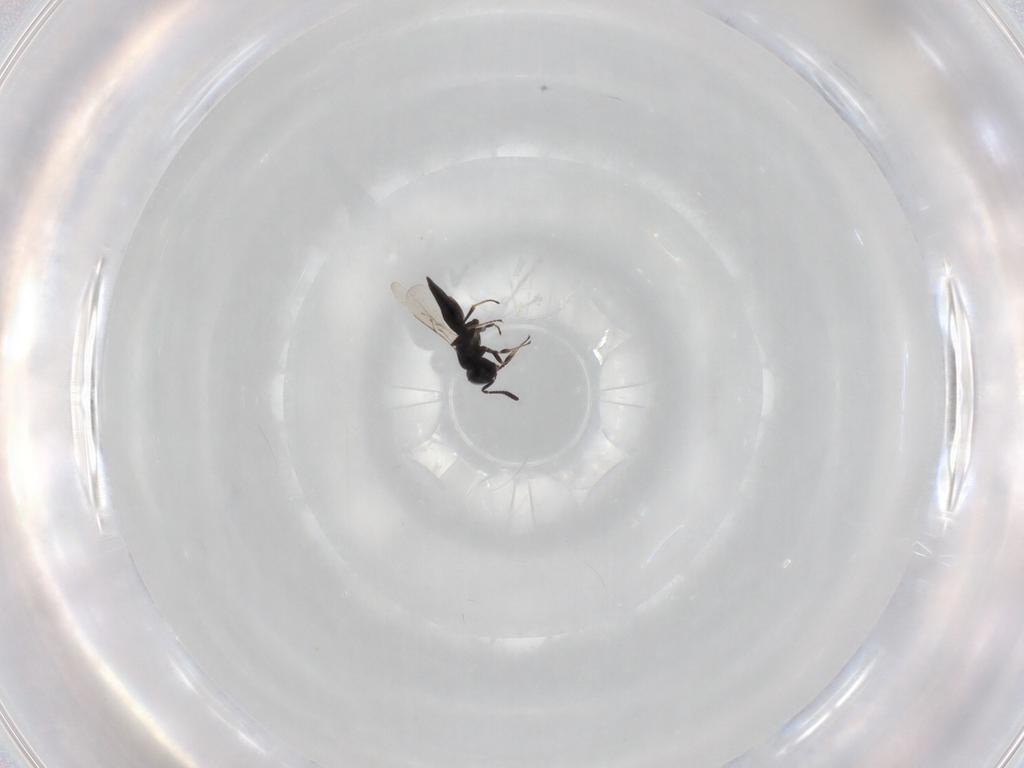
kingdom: Animalia
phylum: Arthropoda
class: Insecta
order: Hymenoptera
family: Scelionidae
